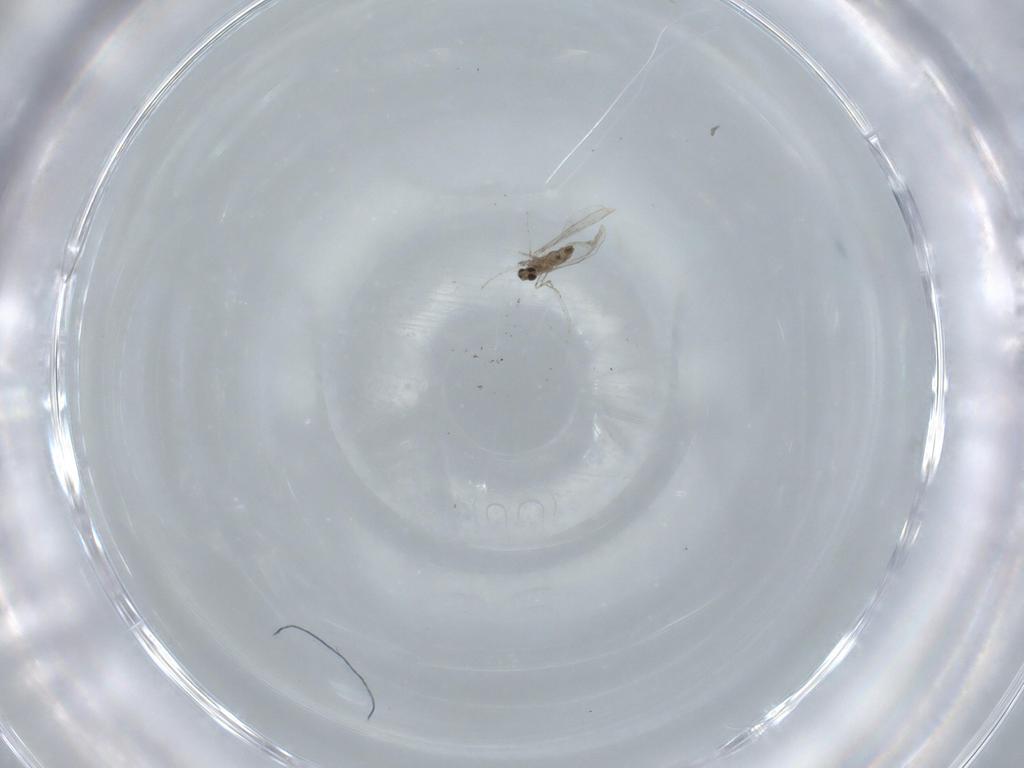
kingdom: Animalia
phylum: Arthropoda
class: Insecta
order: Diptera
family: Cecidomyiidae
